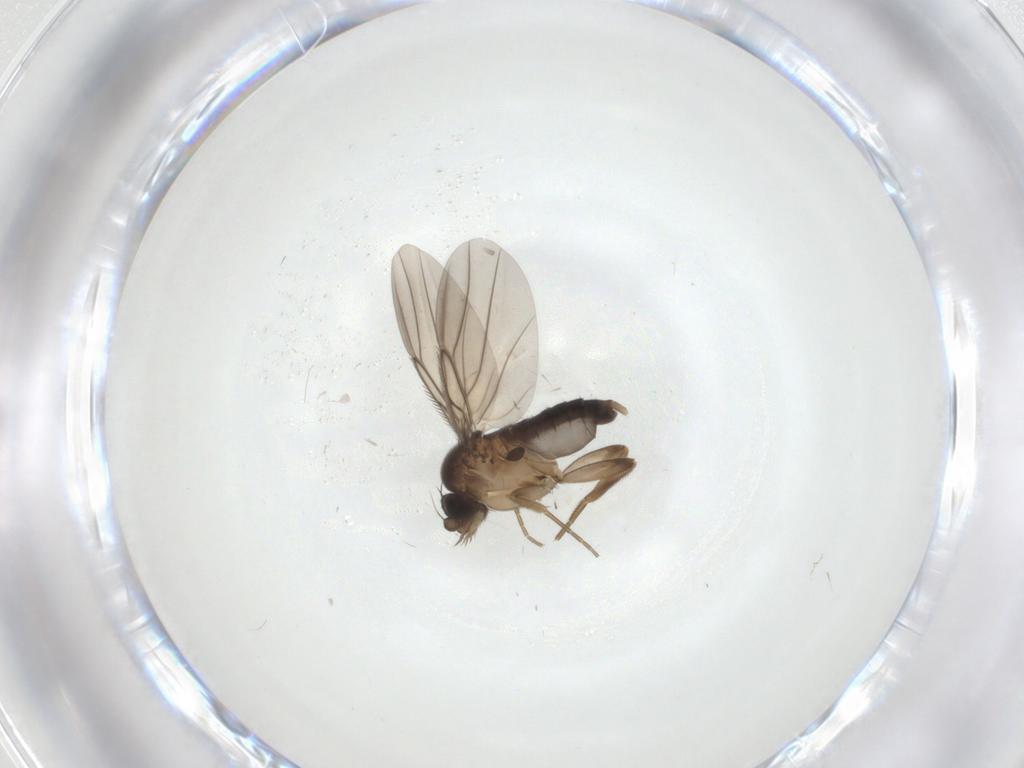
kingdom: Animalia
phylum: Arthropoda
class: Insecta
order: Diptera
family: Phoridae
